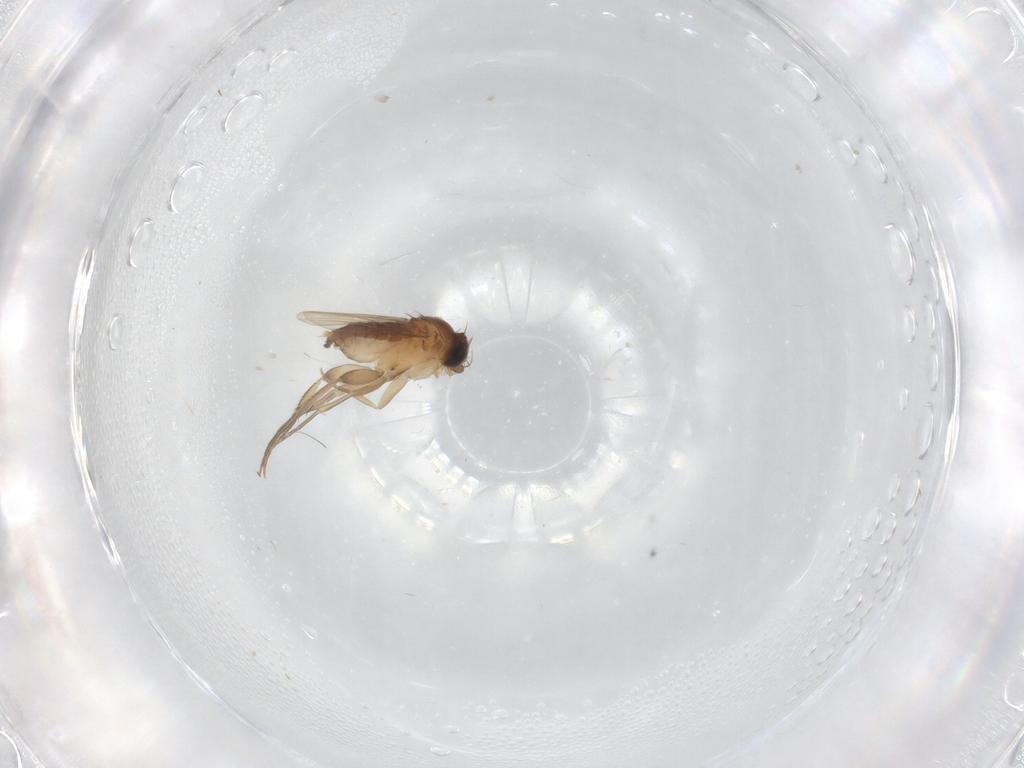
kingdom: Animalia
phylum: Arthropoda
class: Insecta
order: Diptera
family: Phoridae
